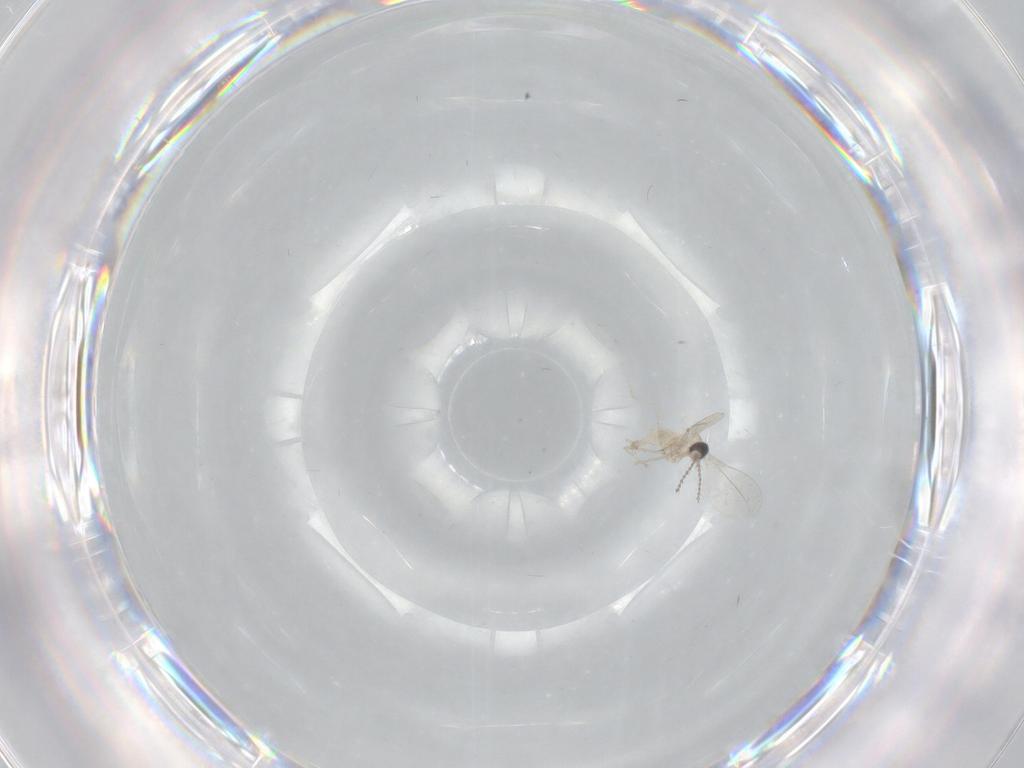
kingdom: Animalia
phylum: Arthropoda
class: Insecta
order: Diptera
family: Cecidomyiidae
